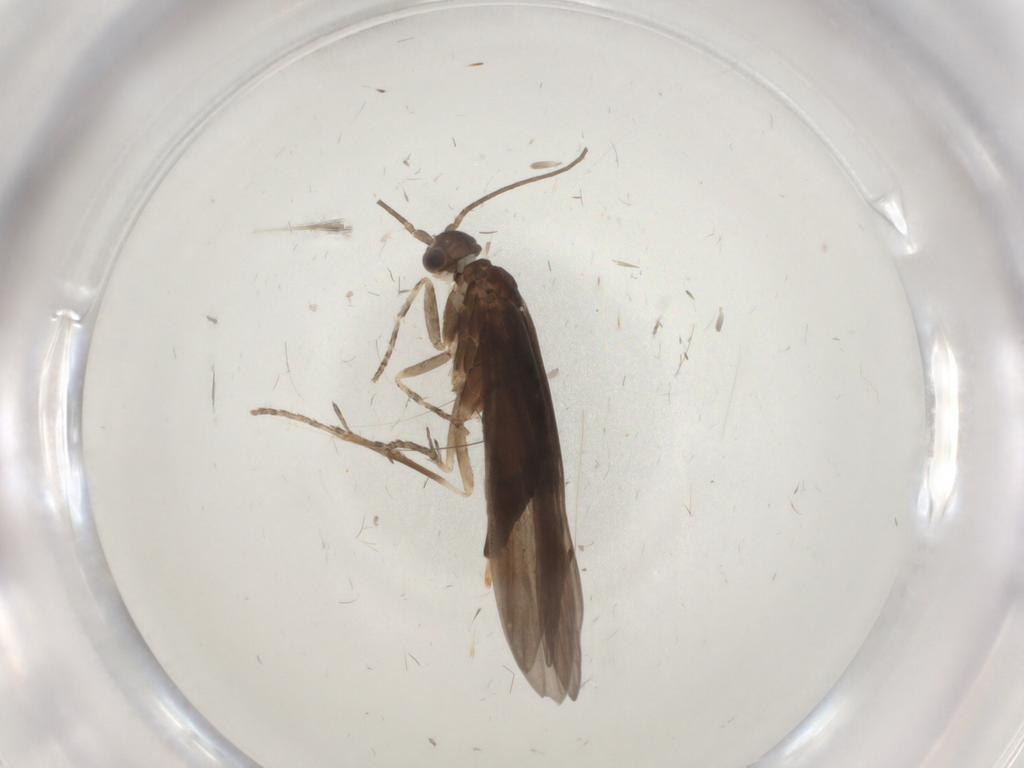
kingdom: Animalia
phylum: Arthropoda
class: Insecta
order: Trichoptera
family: Xiphocentronidae
